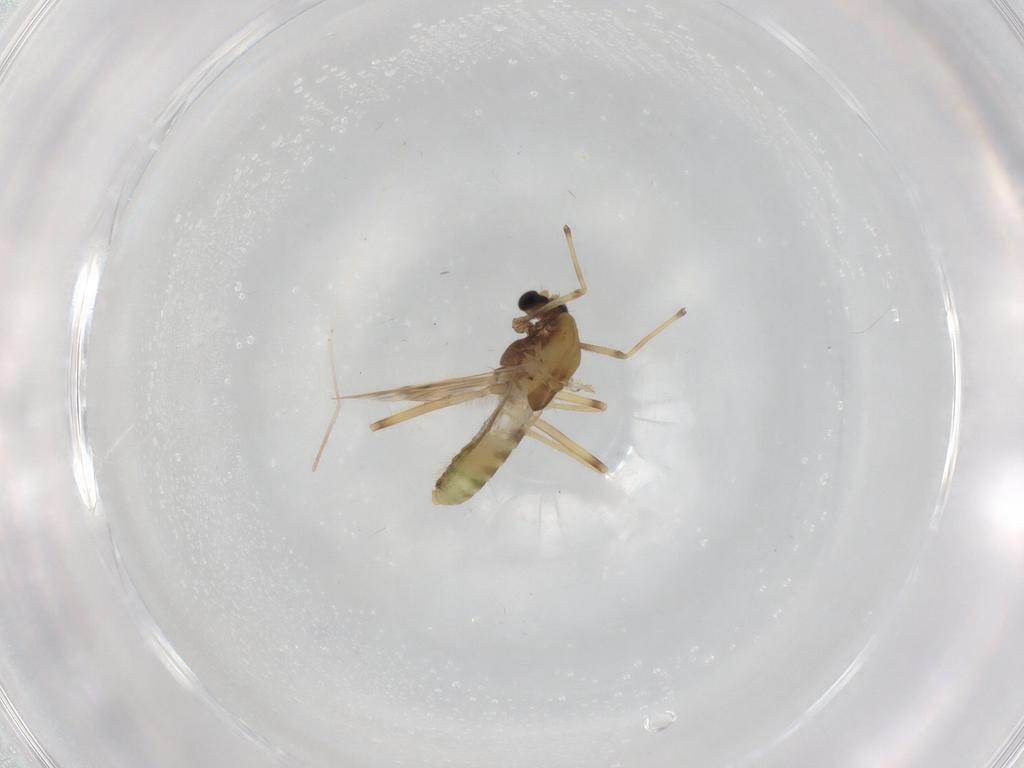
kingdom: Animalia
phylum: Arthropoda
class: Insecta
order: Diptera
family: Chironomidae
